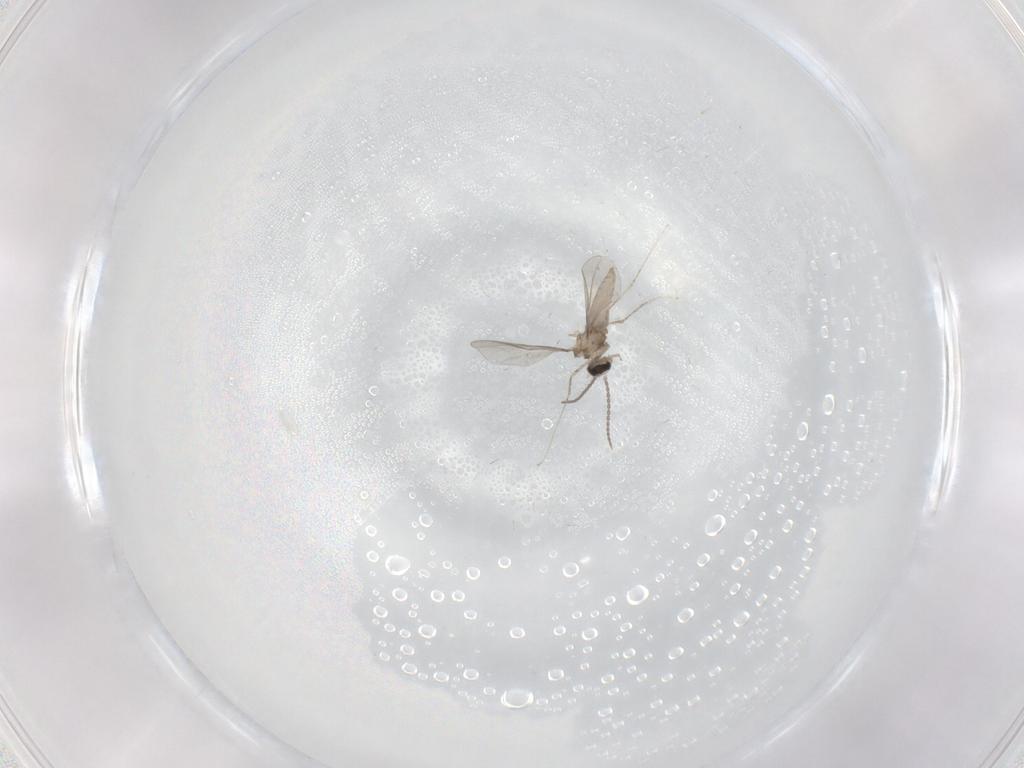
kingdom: Animalia
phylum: Arthropoda
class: Insecta
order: Diptera
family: Cecidomyiidae
